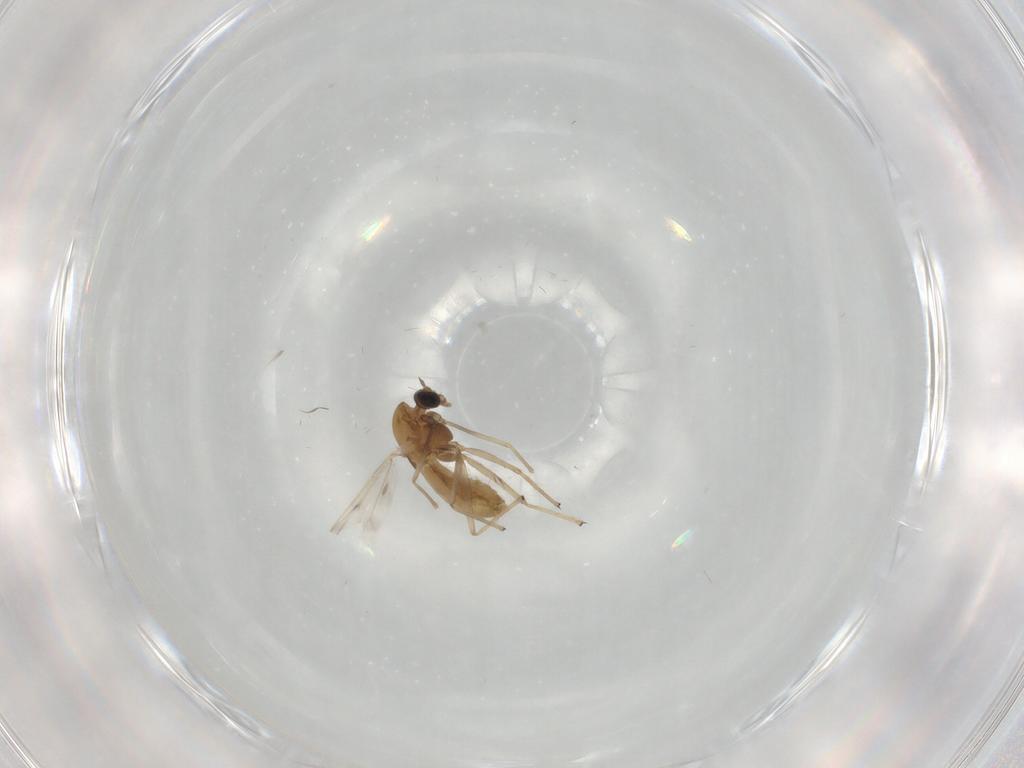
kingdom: Animalia
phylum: Arthropoda
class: Insecta
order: Diptera
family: Chironomidae
